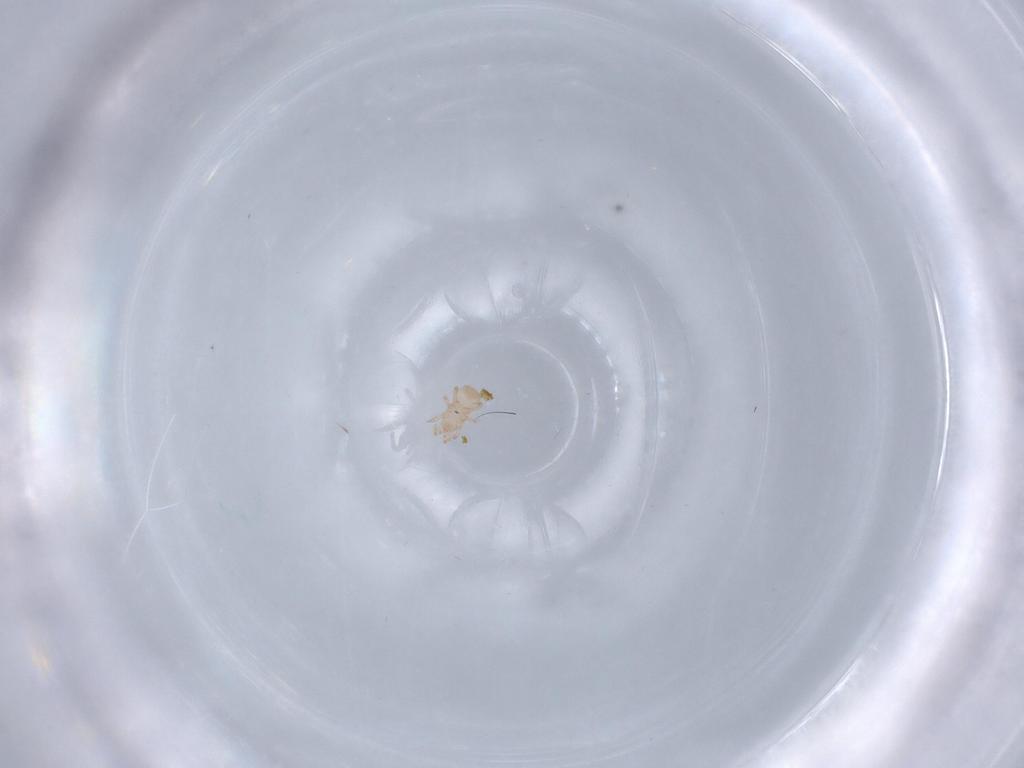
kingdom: Animalia
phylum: Arthropoda
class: Arachnida
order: Mesostigmata
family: Digamasellidae
